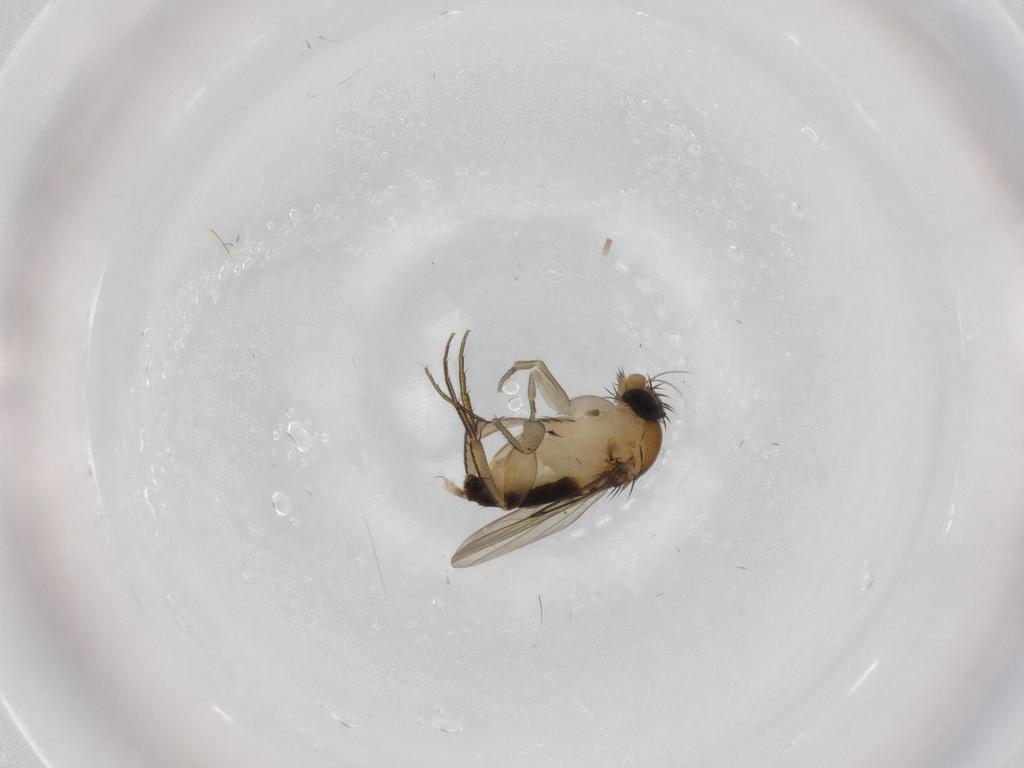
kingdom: Animalia
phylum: Arthropoda
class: Insecta
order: Diptera
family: Phoridae
